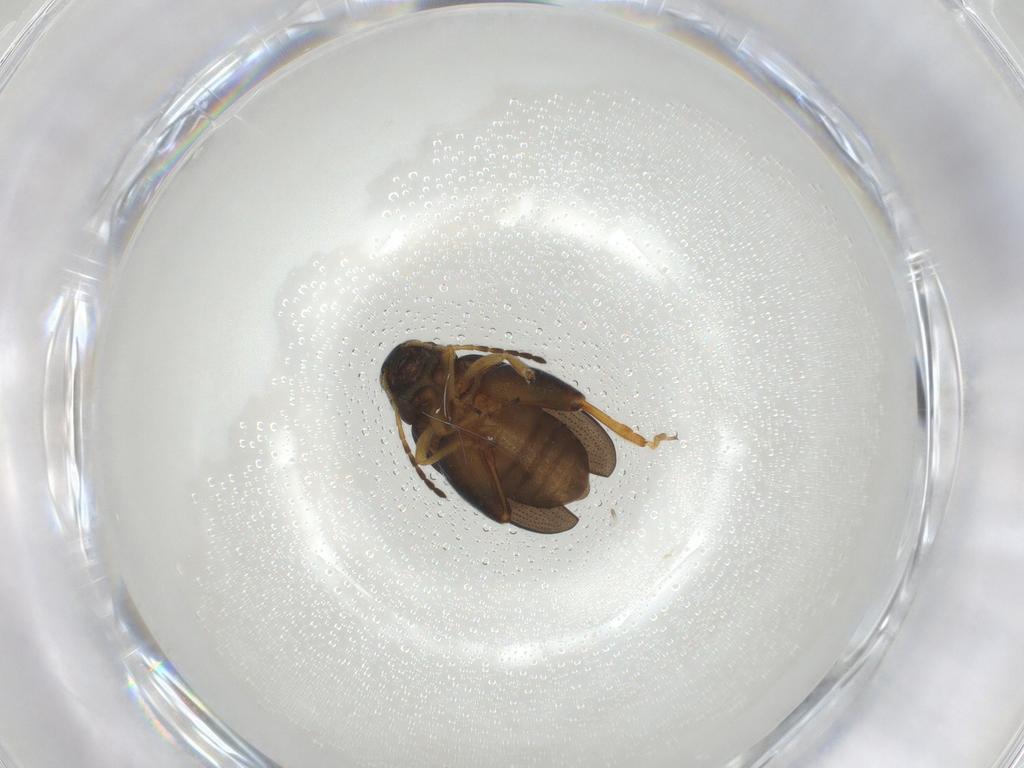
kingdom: Animalia
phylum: Arthropoda
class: Insecta
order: Coleoptera
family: Chrysomelidae
